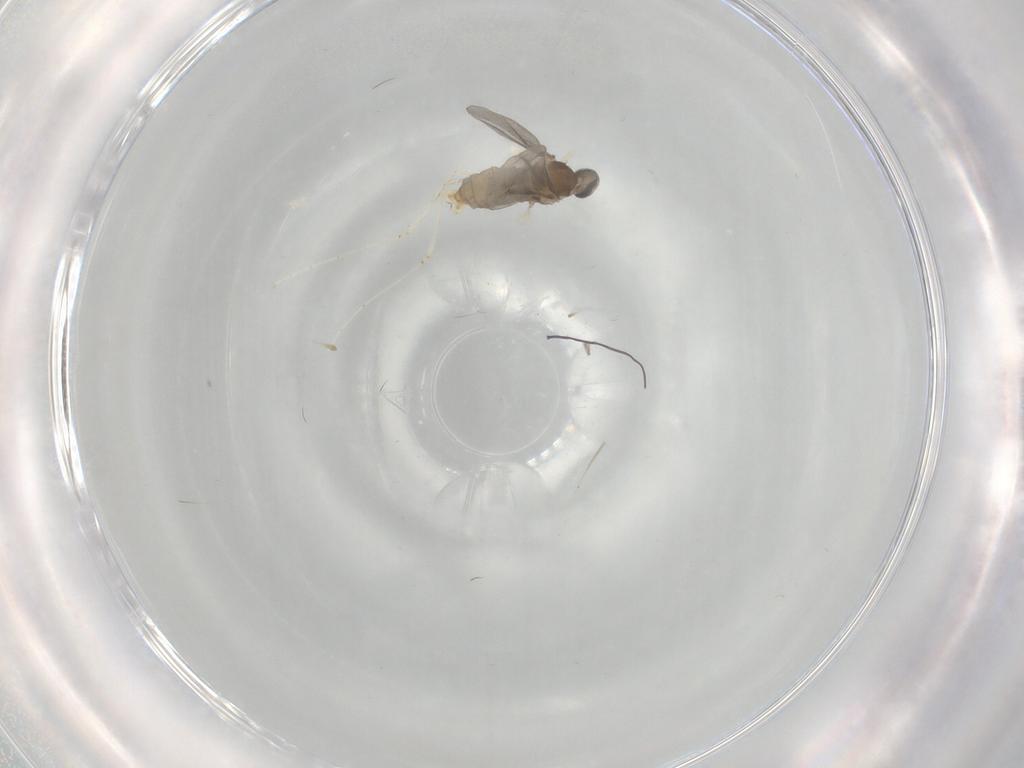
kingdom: Animalia
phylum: Arthropoda
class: Insecta
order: Diptera
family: Cecidomyiidae
